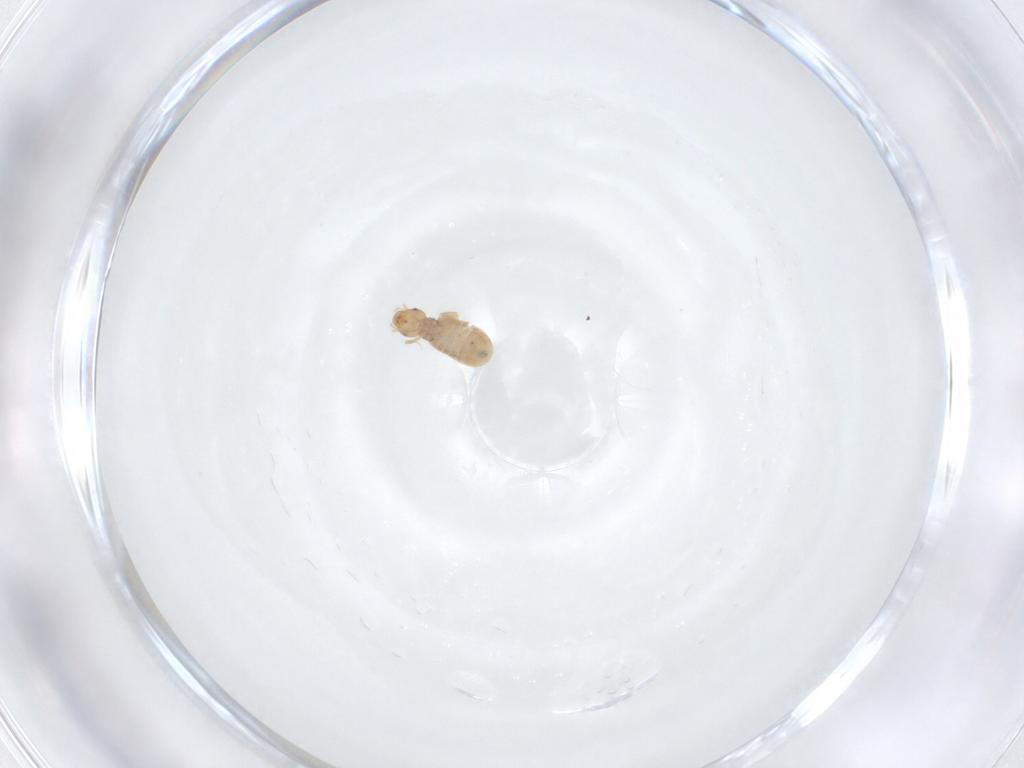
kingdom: Animalia
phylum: Arthropoda
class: Insecta
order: Psocodea
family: Liposcelididae
